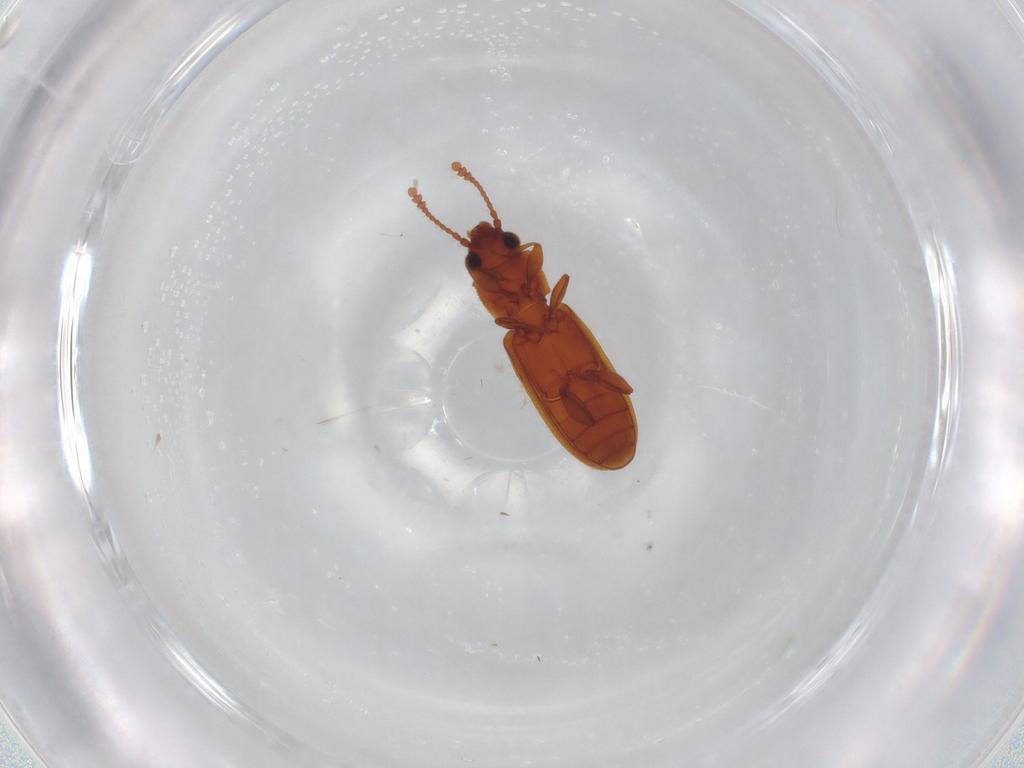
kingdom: Animalia
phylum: Arthropoda
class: Insecta
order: Coleoptera
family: Silvanidae
